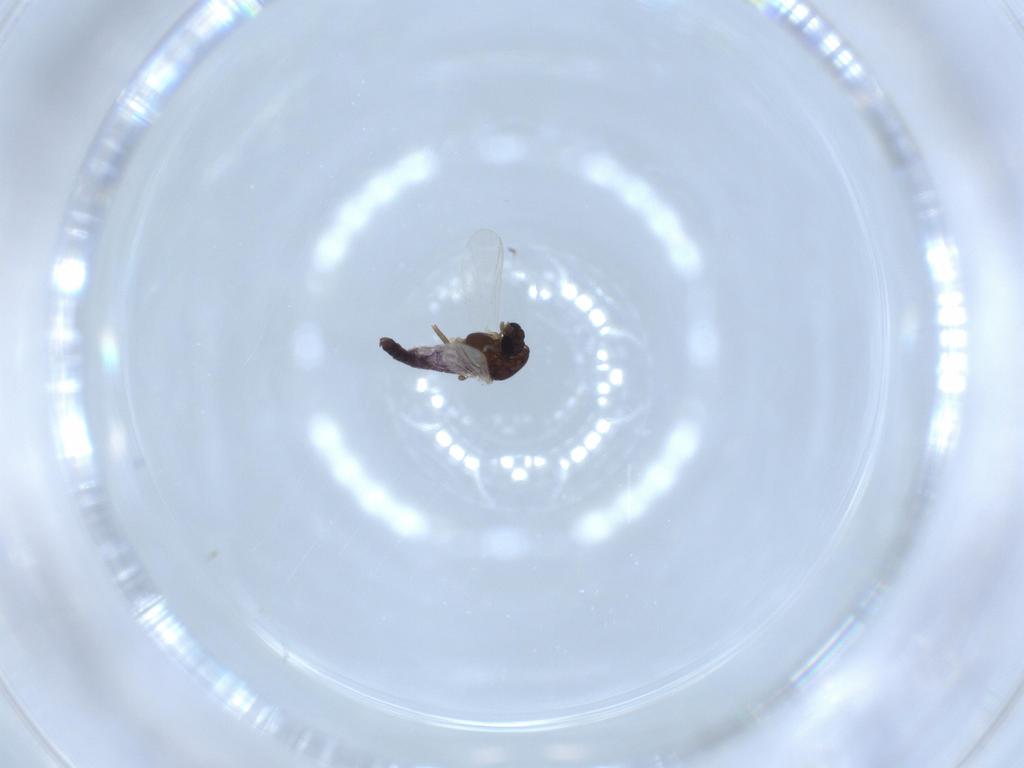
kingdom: Animalia
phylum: Arthropoda
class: Insecta
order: Diptera
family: Chironomidae
